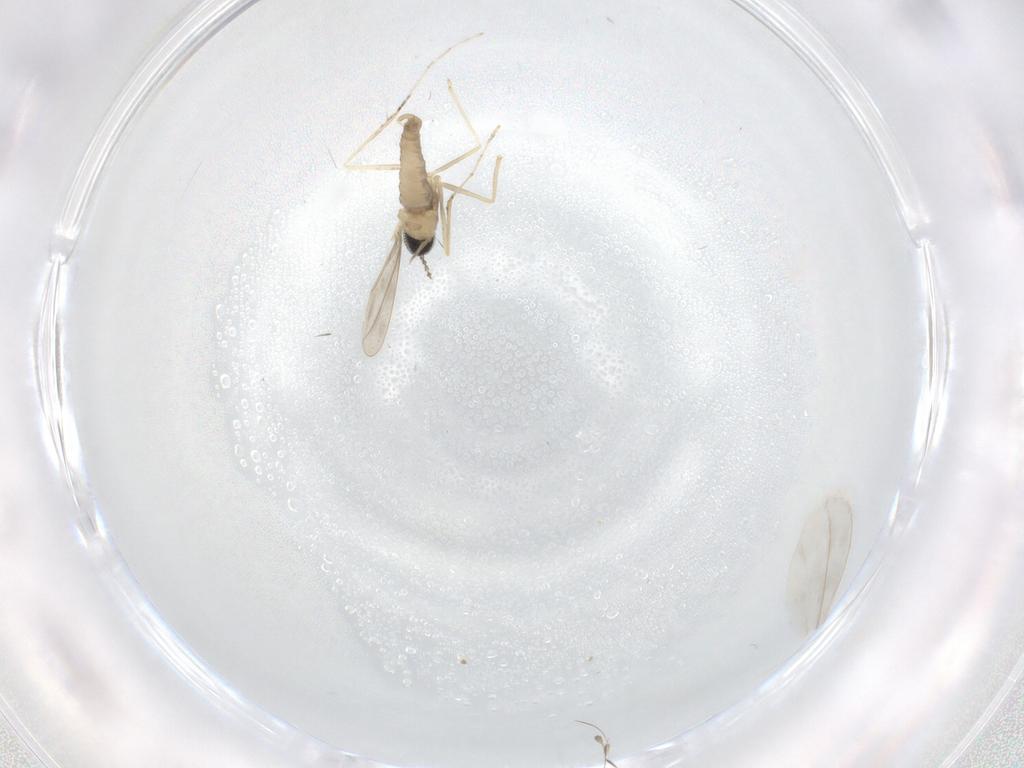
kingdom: Animalia
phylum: Arthropoda
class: Insecta
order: Diptera
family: Cecidomyiidae
